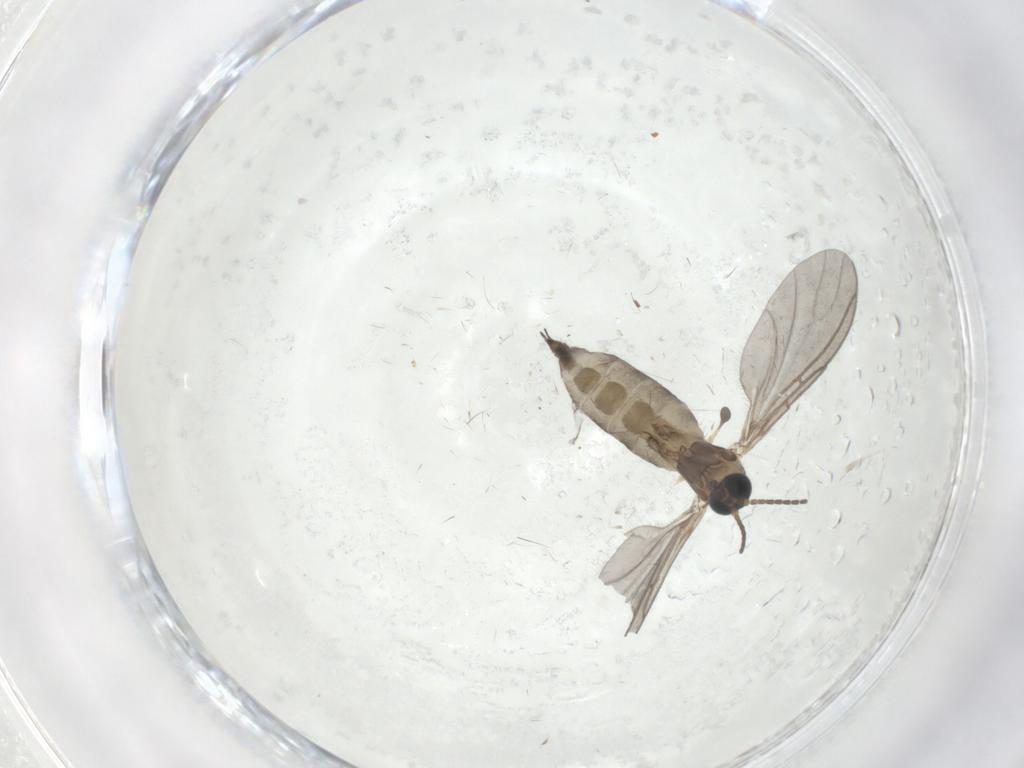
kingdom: Animalia
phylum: Arthropoda
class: Insecta
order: Diptera
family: Sciaridae
